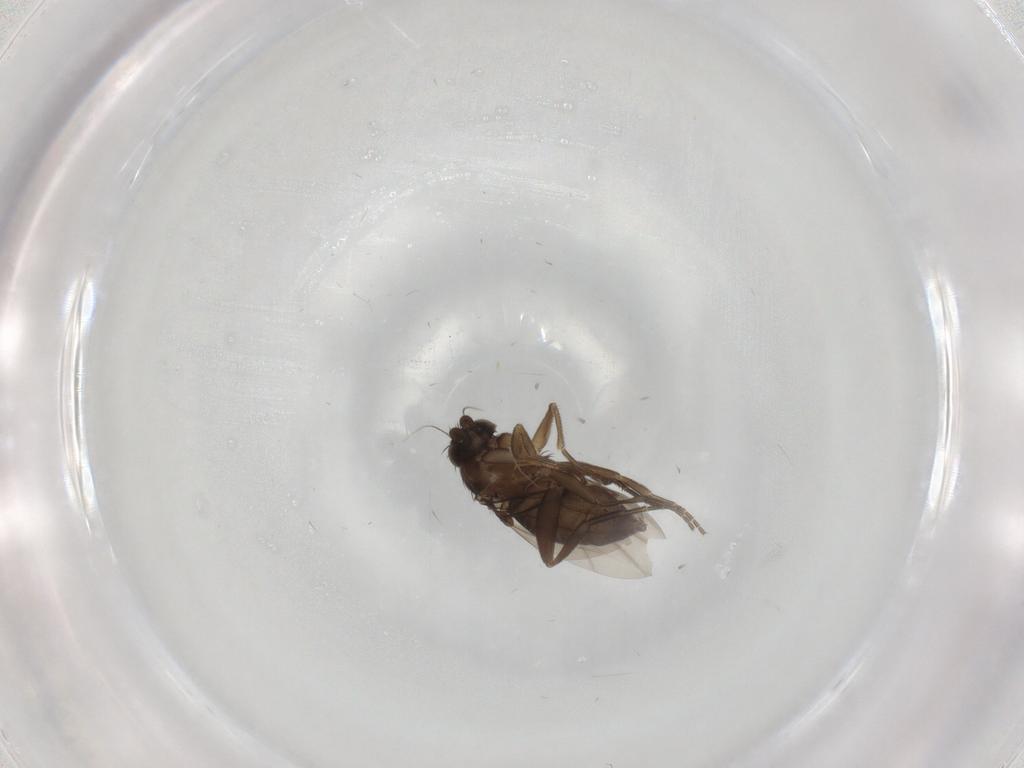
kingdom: Animalia
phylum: Arthropoda
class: Insecta
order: Diptera
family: Phoridae
